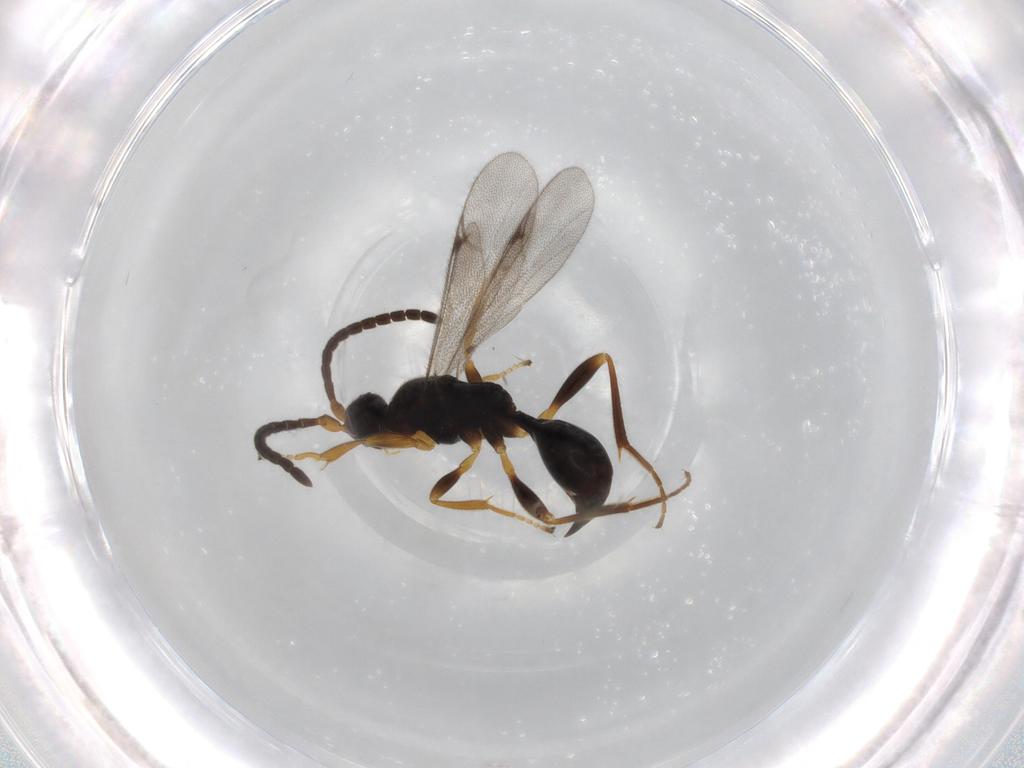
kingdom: Animalia
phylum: Arthropoda
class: Insecta
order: Hymenoptera
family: Proctotrupidae
